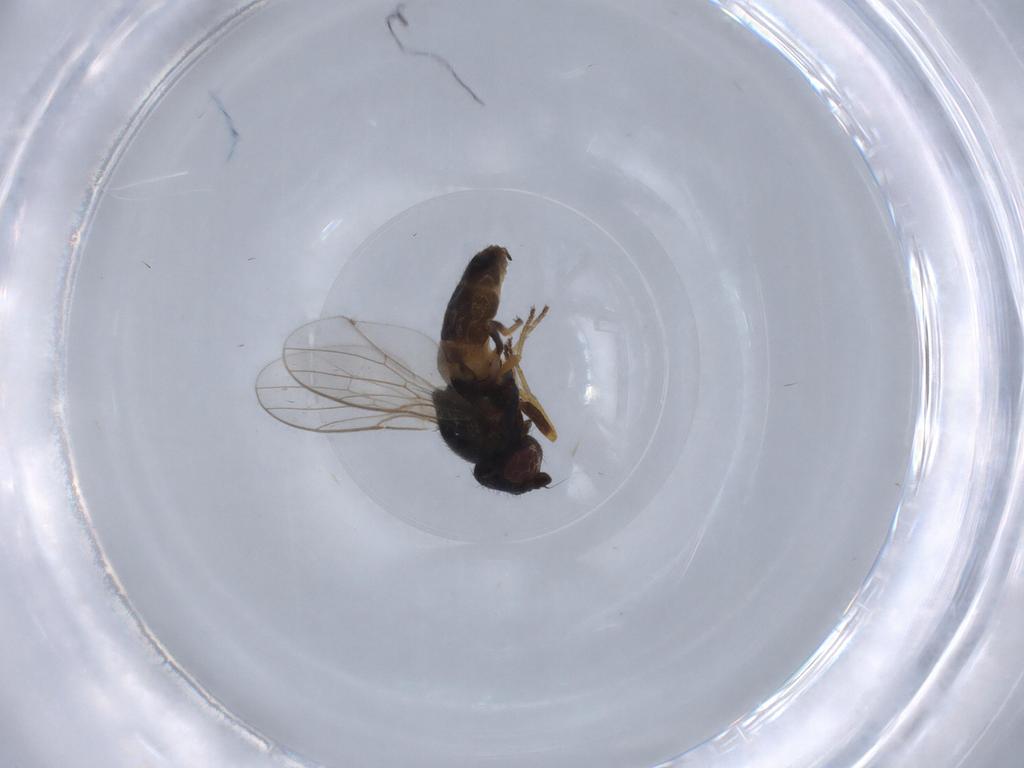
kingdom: Animalia
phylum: Arthropoda
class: Insecta
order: Diptera
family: Chloropidae
